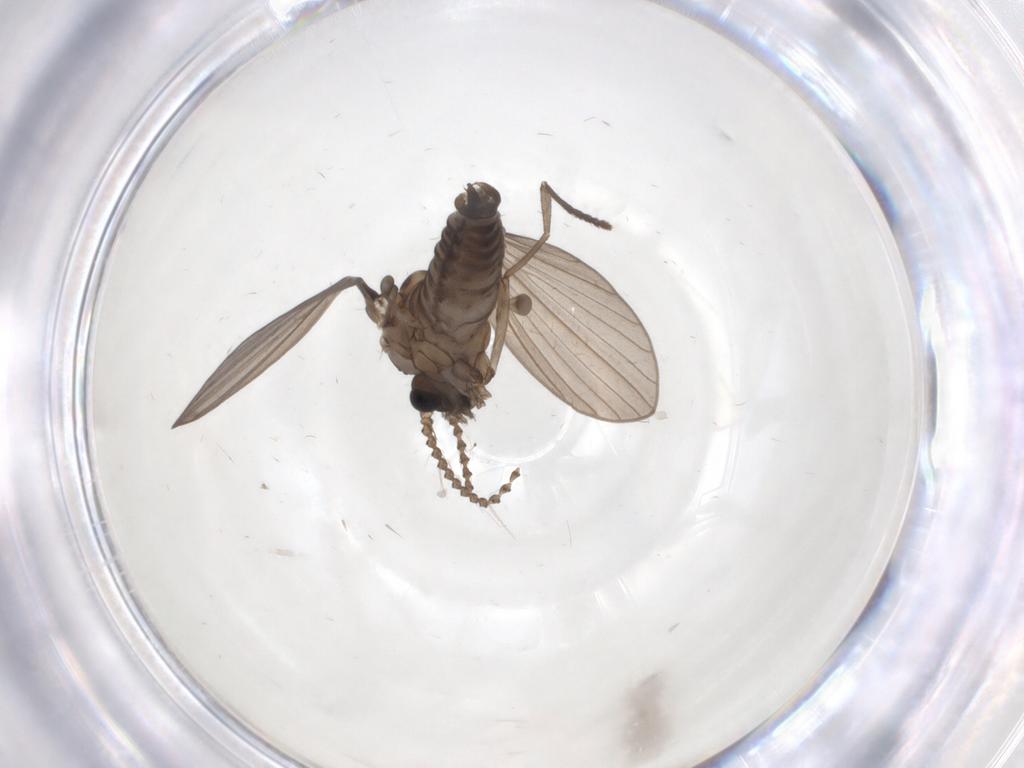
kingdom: Animalia
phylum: Arthropoda
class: Insecta
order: Diptera
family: Psychodidae
